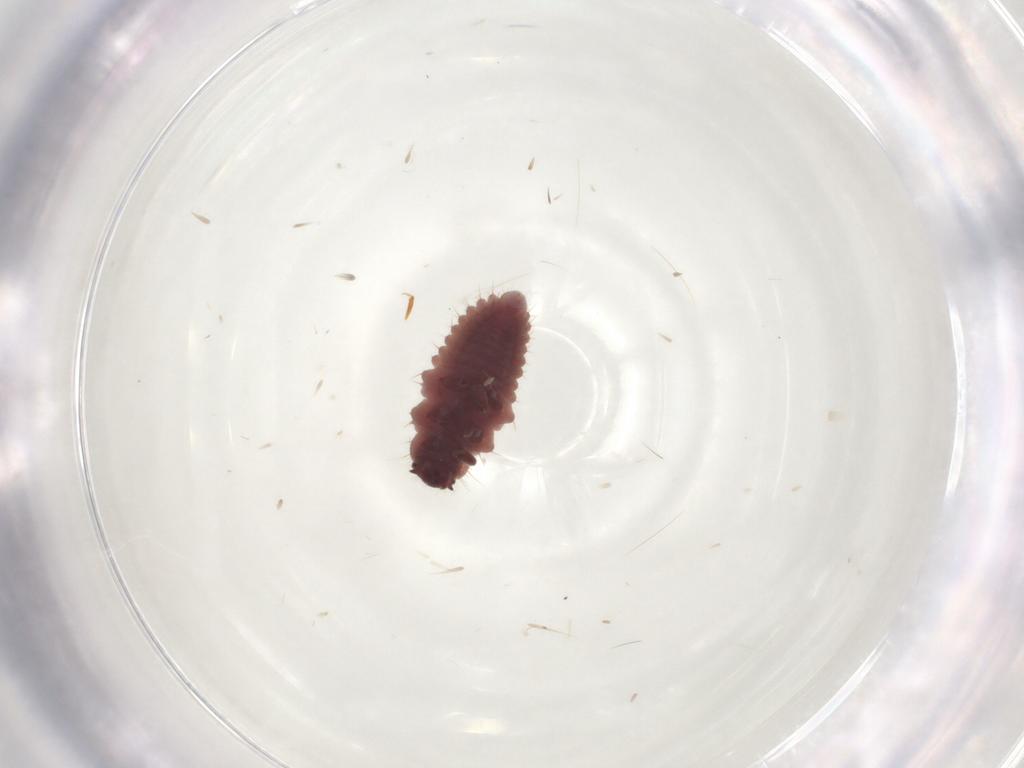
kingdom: Animalia
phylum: Arthropoda
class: Insecta
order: Coleoptera
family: Coccinellidae
